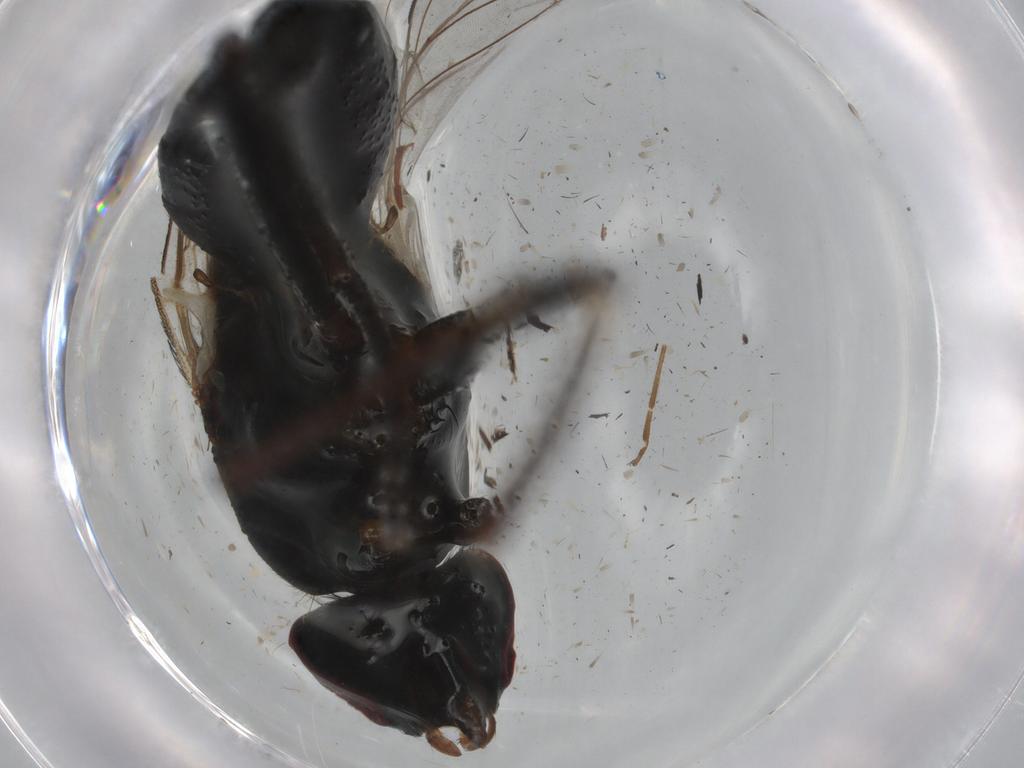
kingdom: Animalia
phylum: Arthropoda
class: Insecta
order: Diptera
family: Sciaridae
